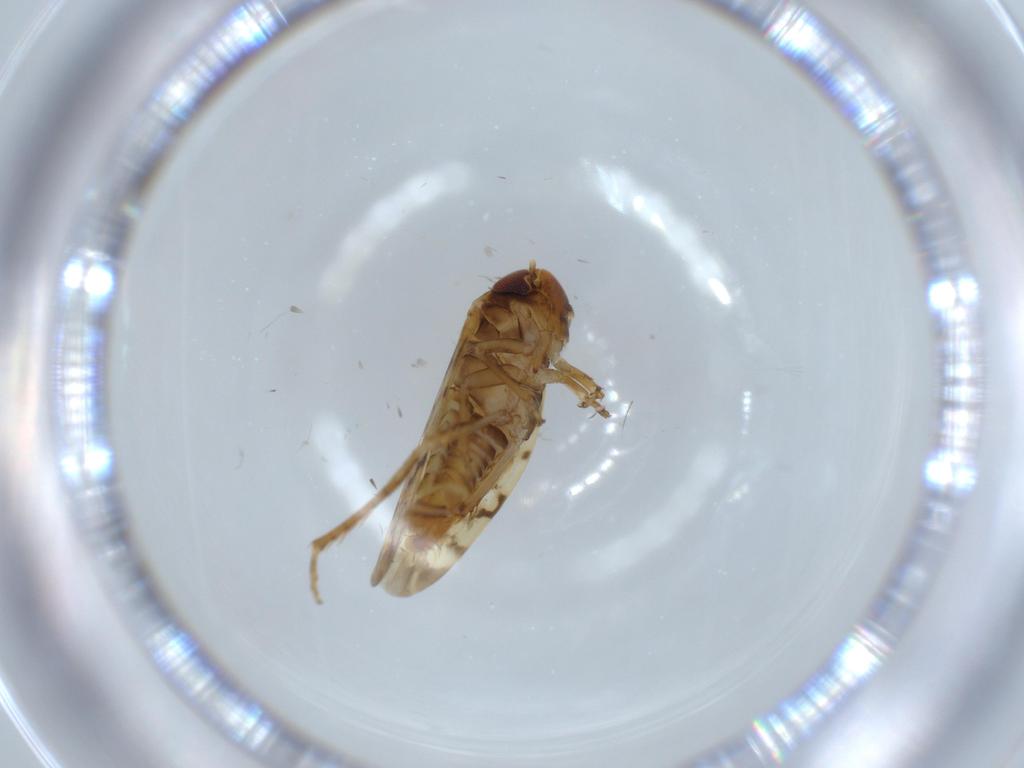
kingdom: Animalia
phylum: Arthropoda
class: Insecta
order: Hemiptera
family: Cicadellidae
